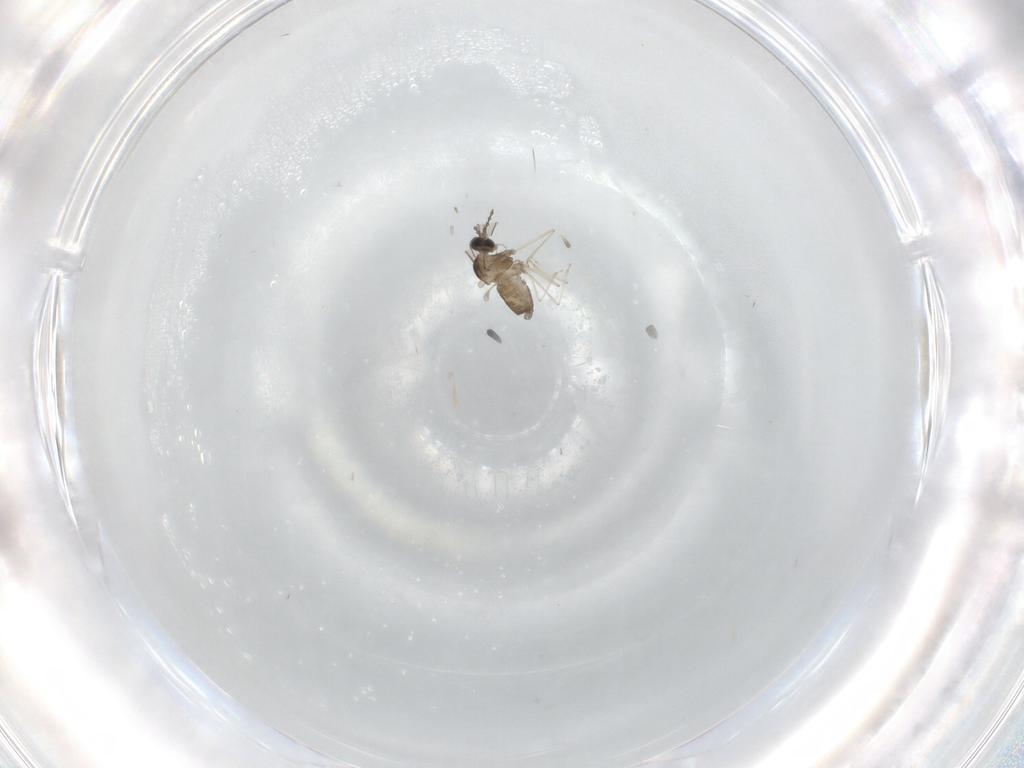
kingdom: Animalia
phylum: Arthropoda
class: Insecta
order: Diptera
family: Cecidomyiidae
